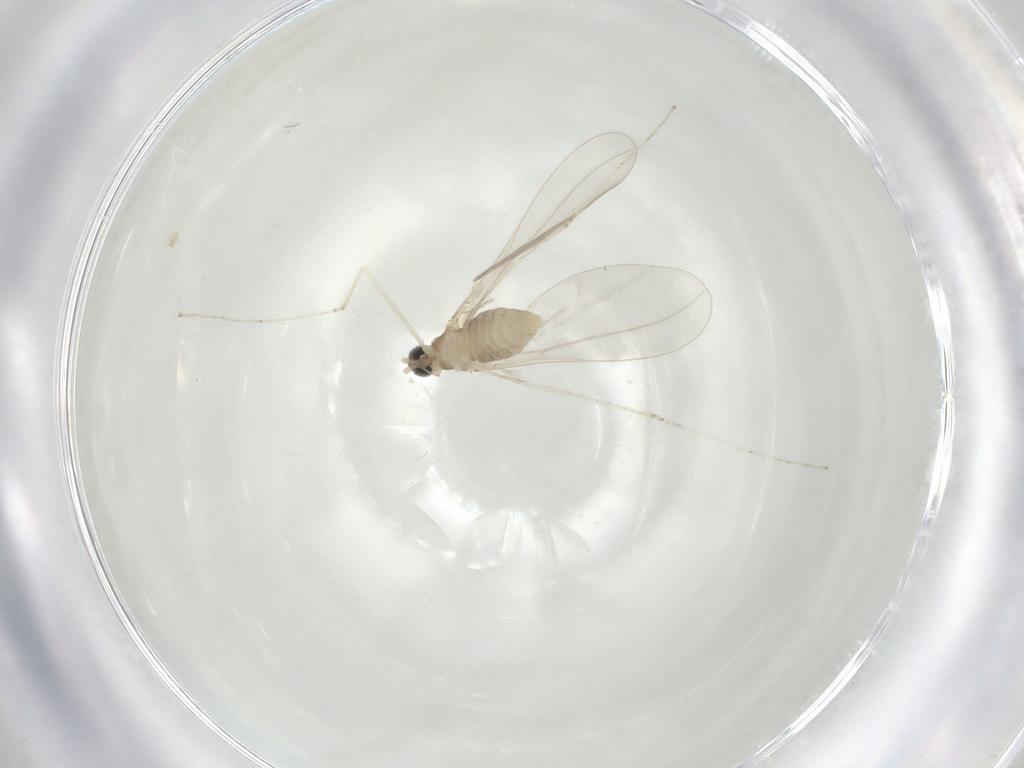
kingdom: Animalia
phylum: Arthropoda
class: Insecta
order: Diptera
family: Cecidomyiidae
